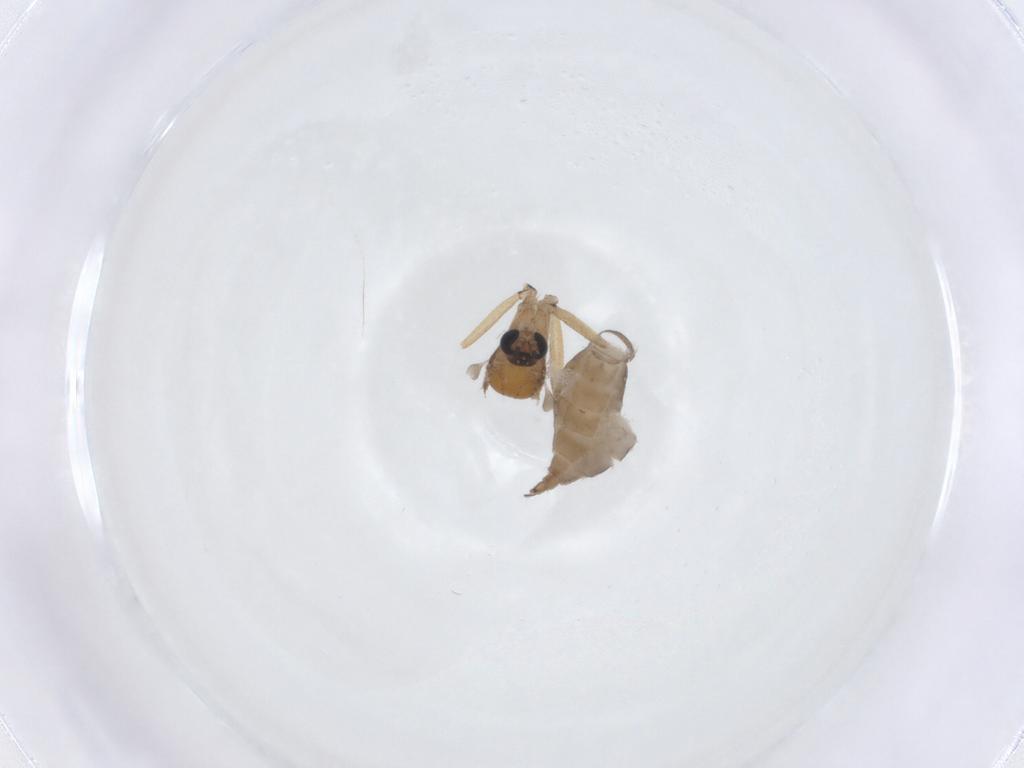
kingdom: Animalia
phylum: Arthropoda
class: Insecta
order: Diptera
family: Sciaridae
